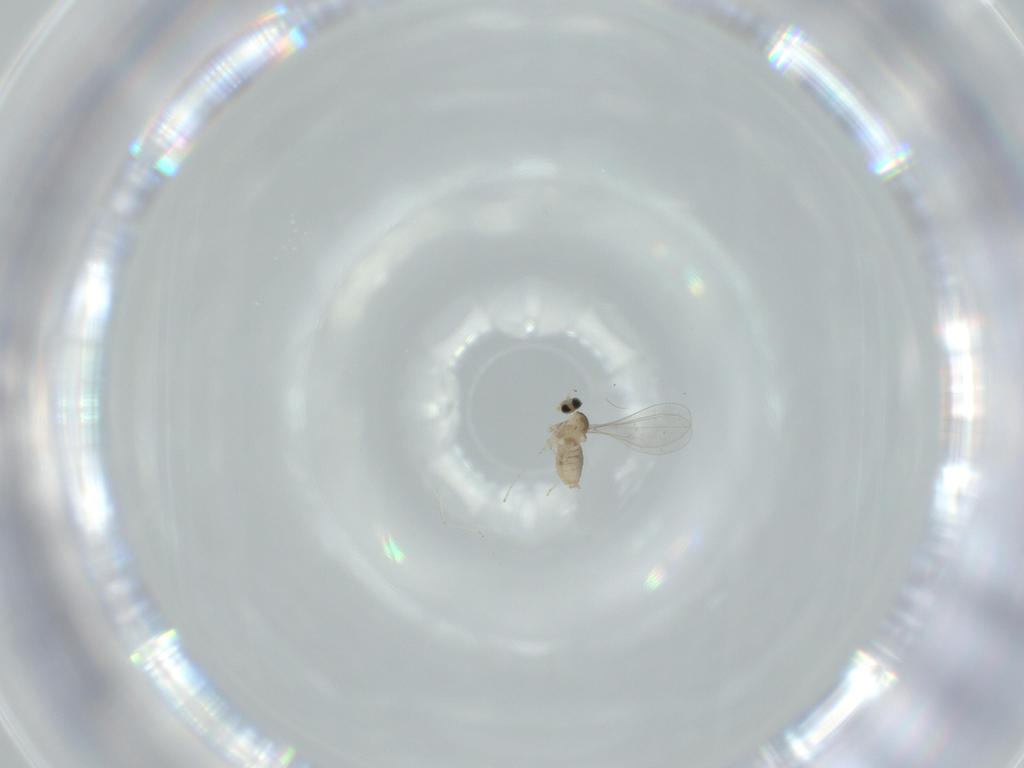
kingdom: Animalia
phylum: Arthropoda
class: Insecta
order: Diptera
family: Cecidomyiidae
